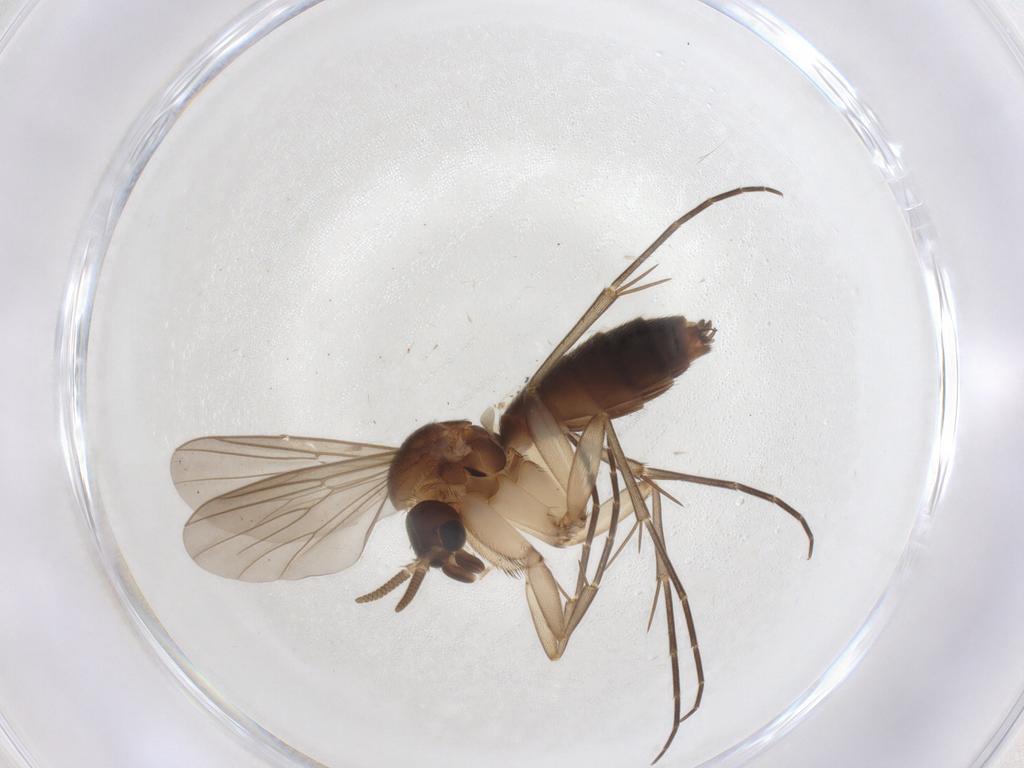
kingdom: Animalia
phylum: Arthropoda
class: Insecta
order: Diptera
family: Mycetophilidae
